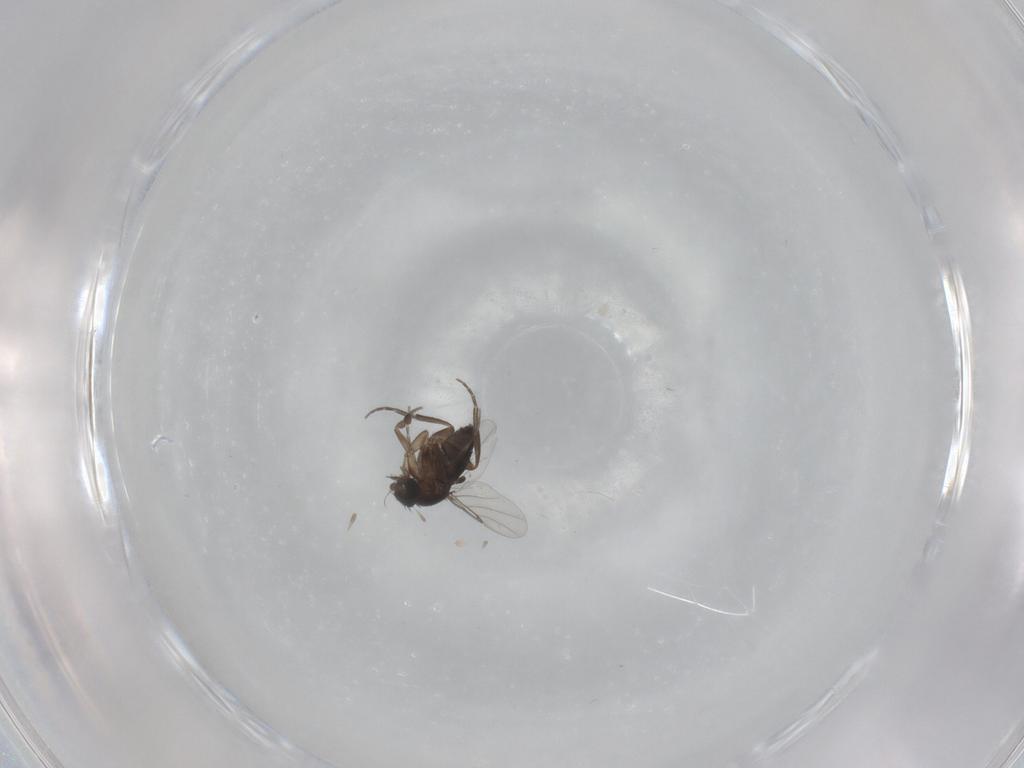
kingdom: Animalia
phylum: Arthropoda
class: Insecta
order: Diptera
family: Phoridae
